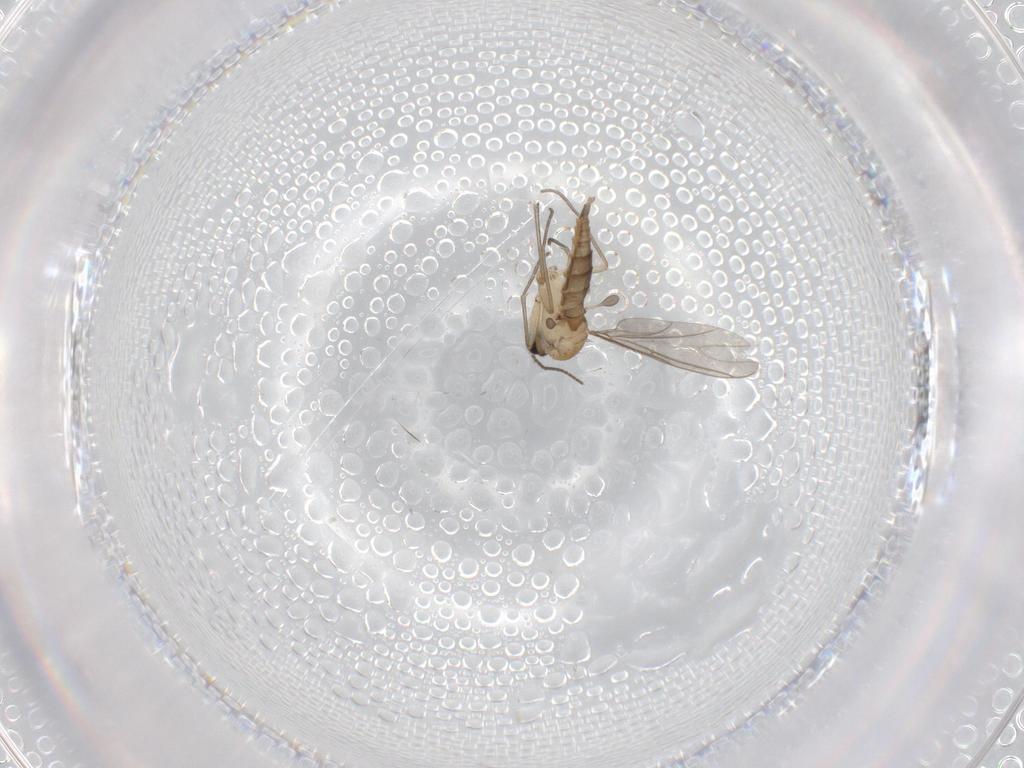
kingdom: Animalia
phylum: Arthropoda
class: Insecta
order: Diptera
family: Sciaridae
